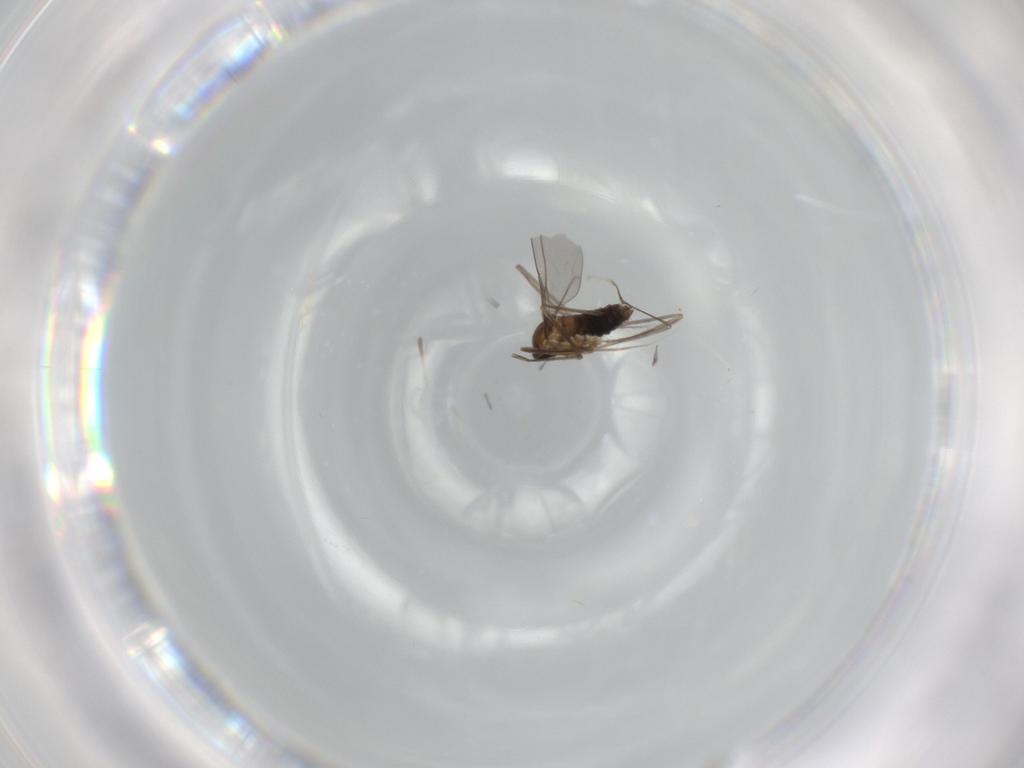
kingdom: Animalia
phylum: Arthropoda
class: Insecta
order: Diptera
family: Cecidomyiidae
